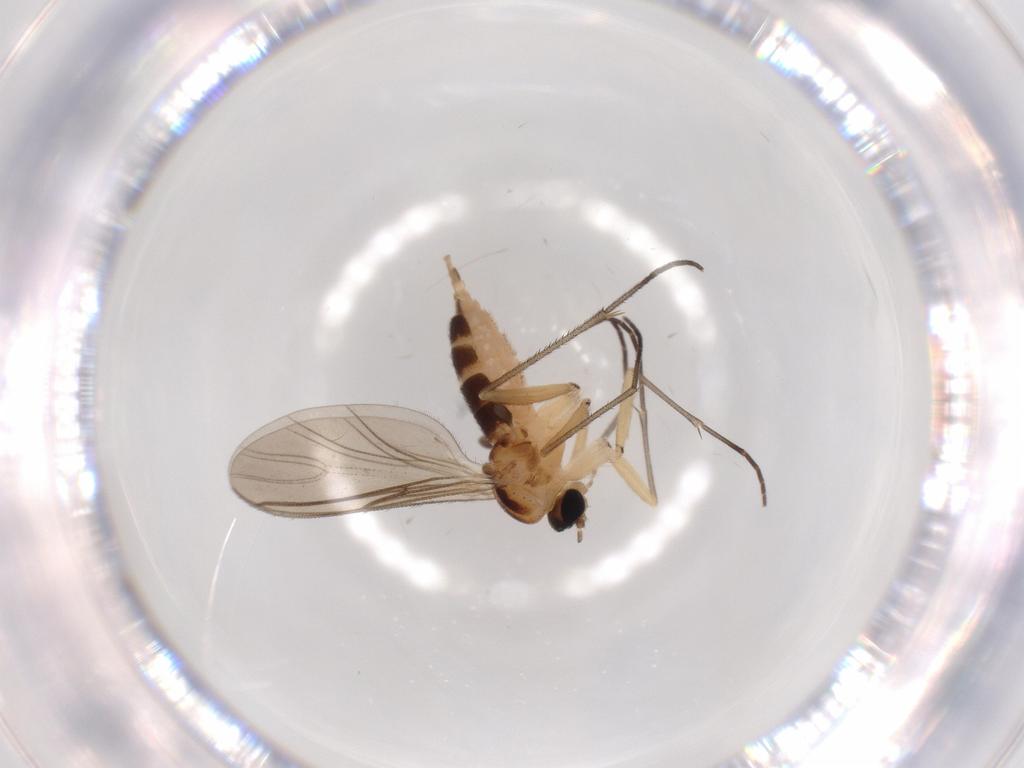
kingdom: Animalia
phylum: Arthropoda
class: Insecta
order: Diptera
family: Sciaridae
